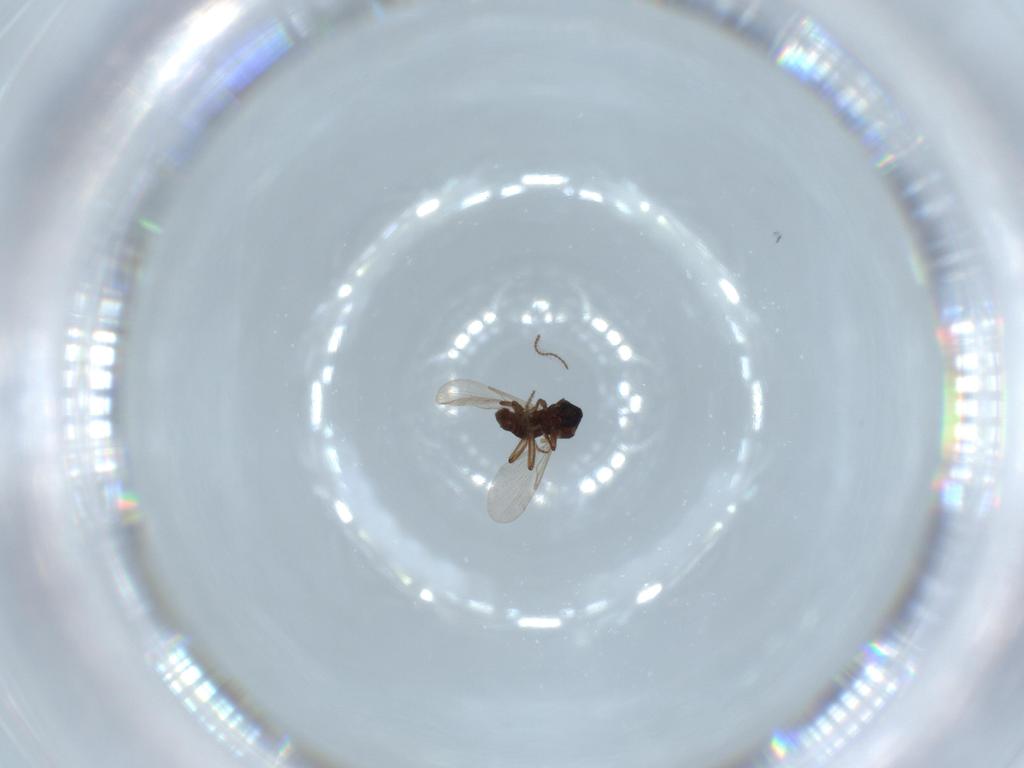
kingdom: Animalia
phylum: Arthropoda
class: Insecta
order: Diptera
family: Ceratopogonidae
